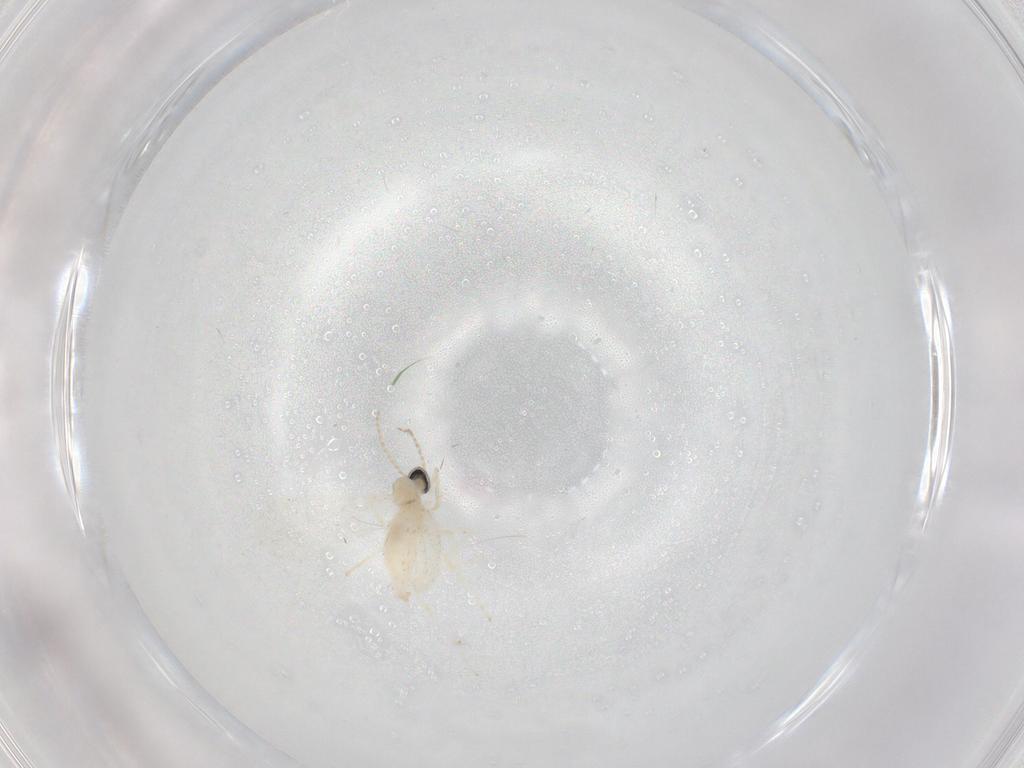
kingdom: Animalia
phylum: Arthropoda
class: Insecta
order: Diptera
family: Cecidomyiidae
